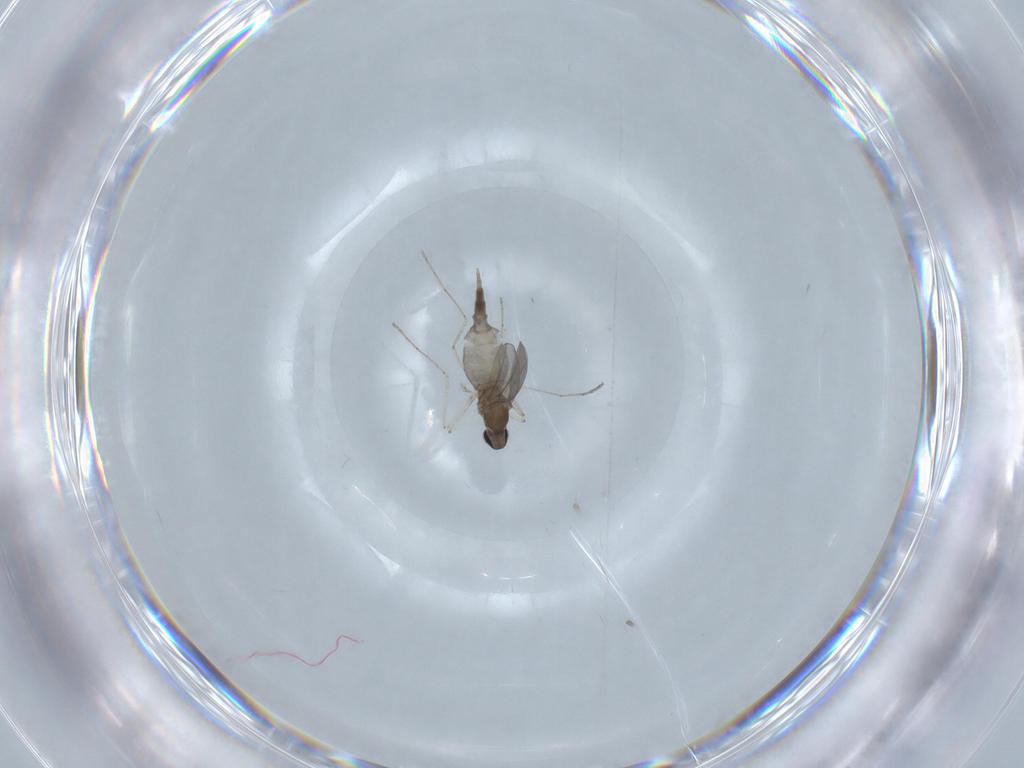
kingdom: Animalia
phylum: Arthropoda
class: Insecta
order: Diptera
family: Cecidomyiidae
